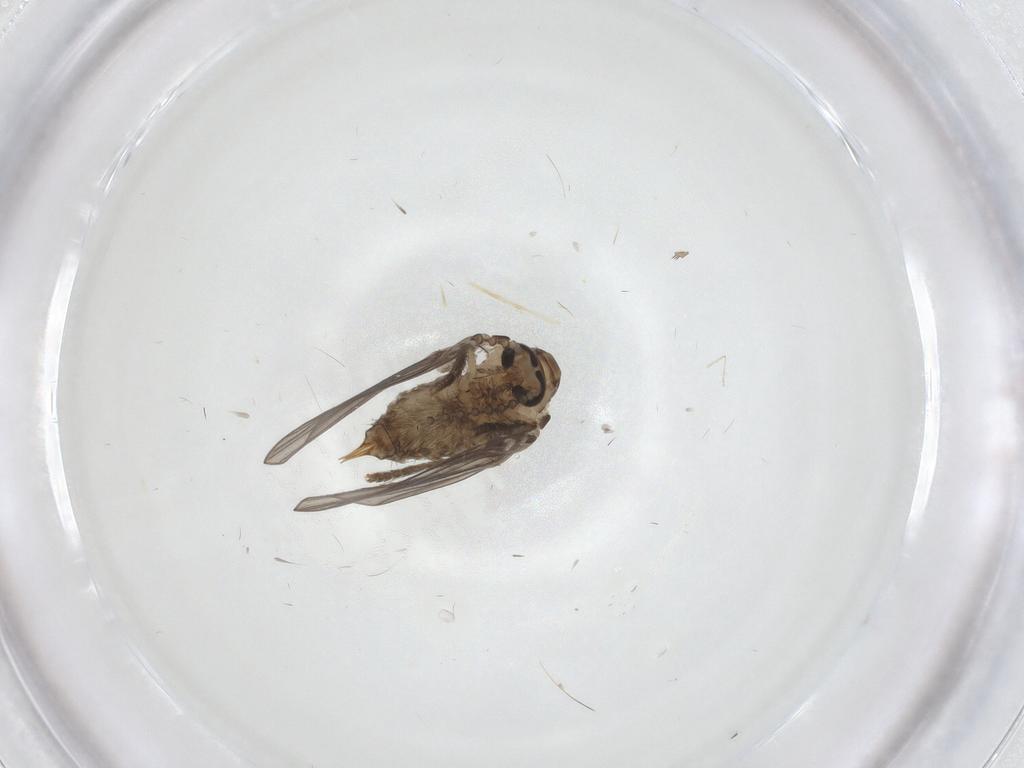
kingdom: Animalia
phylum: Arthropoda
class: Insecta
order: Diptera
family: Psychodidae
